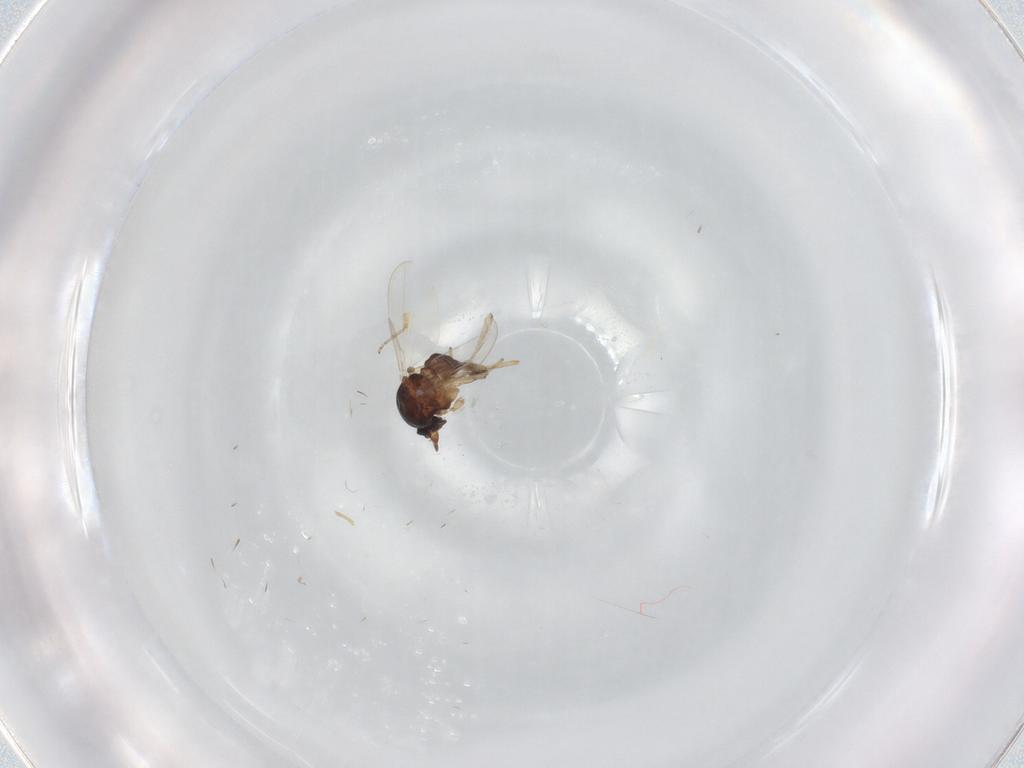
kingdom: Animalia
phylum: Arthropoda
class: Insecta
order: Diptera
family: Ceratopogonidae
